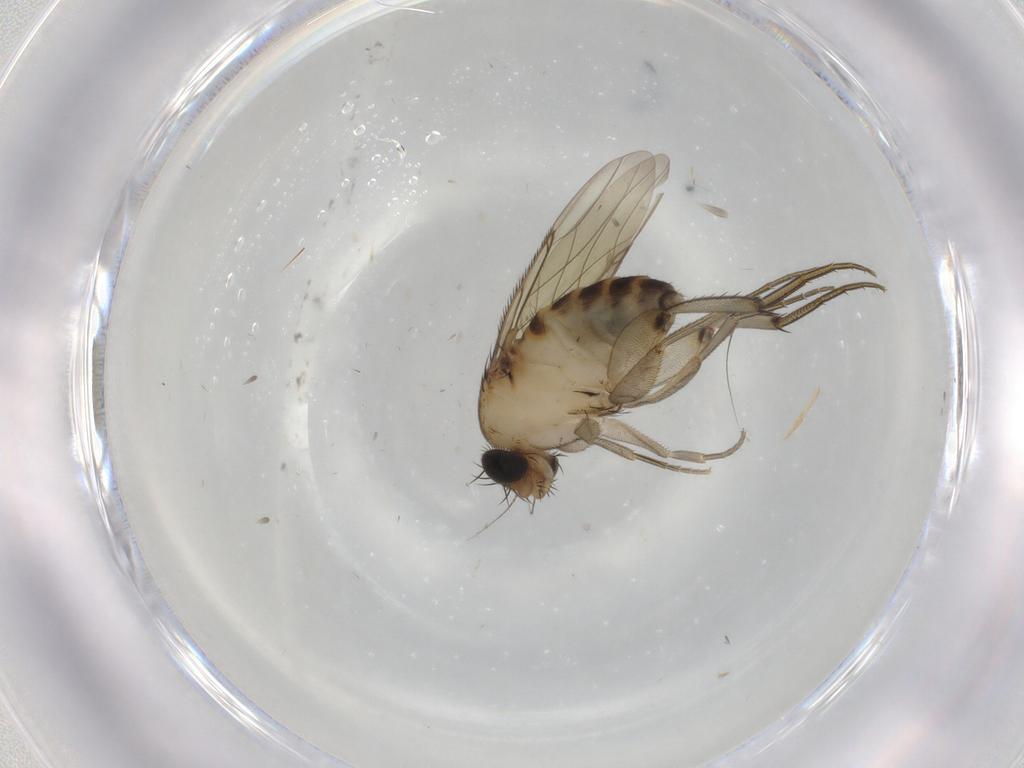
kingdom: Animalia
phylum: Arthropoda
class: Insecta
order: Diptera
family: Phoridae
